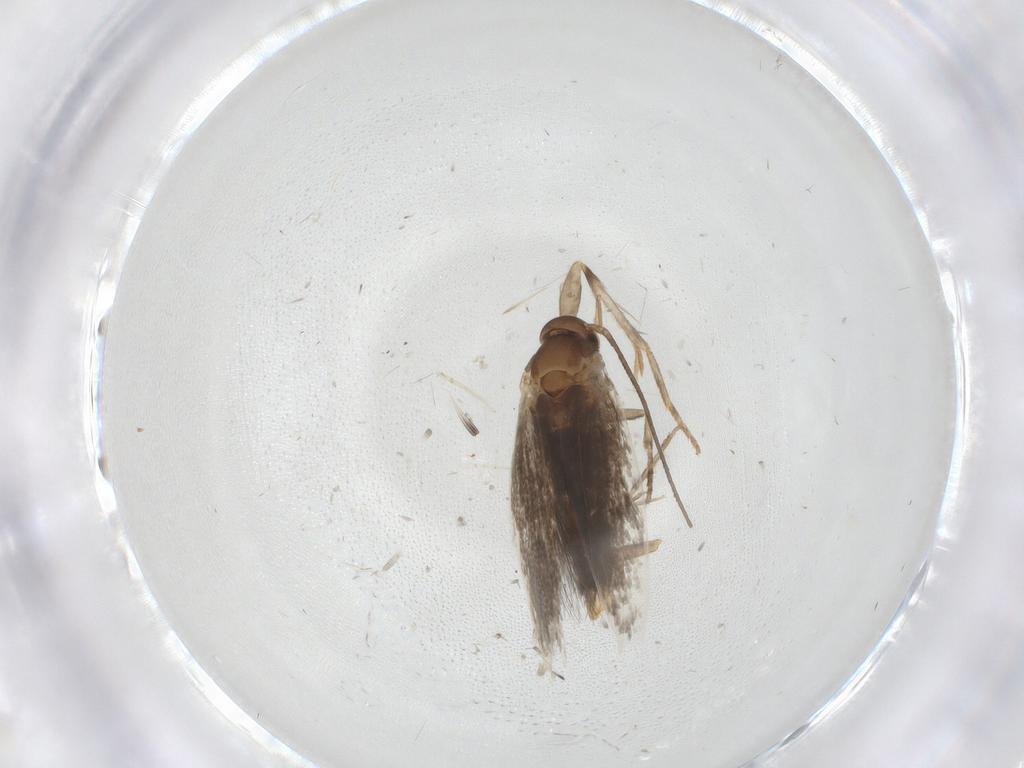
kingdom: Animalia
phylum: Arthropoda
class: Insecta
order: Lepidoptera
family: Elachistidae
